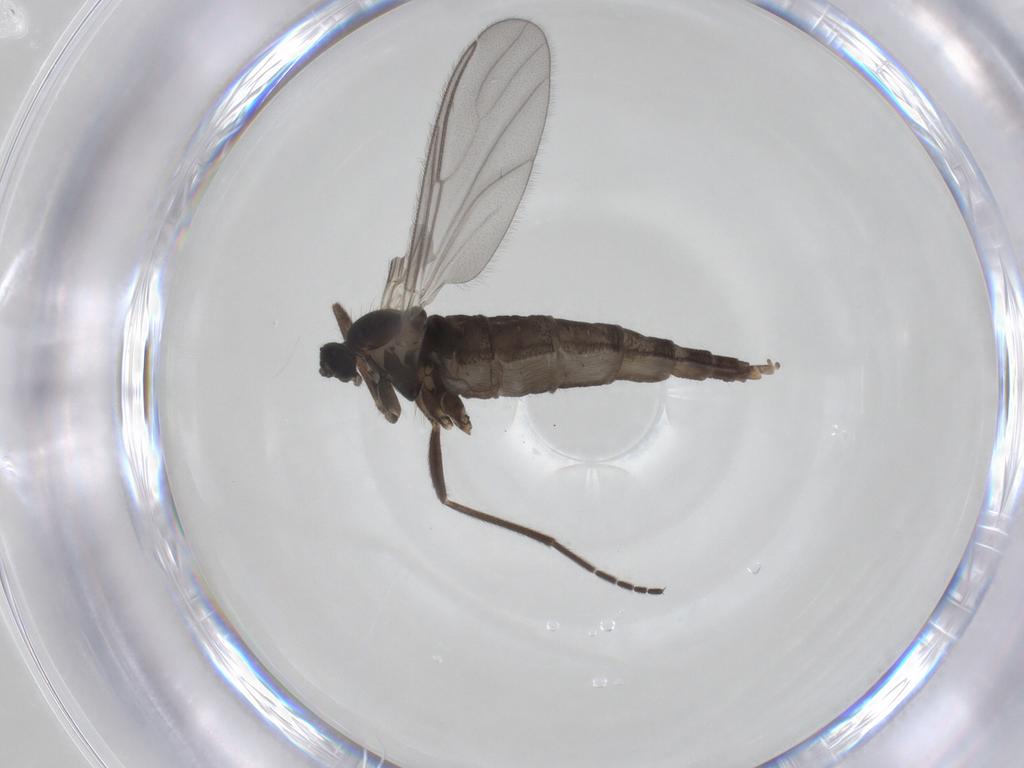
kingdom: Animalia
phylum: Arthropoda
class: Insecta
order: Diptera
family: Cecidomyiidae
